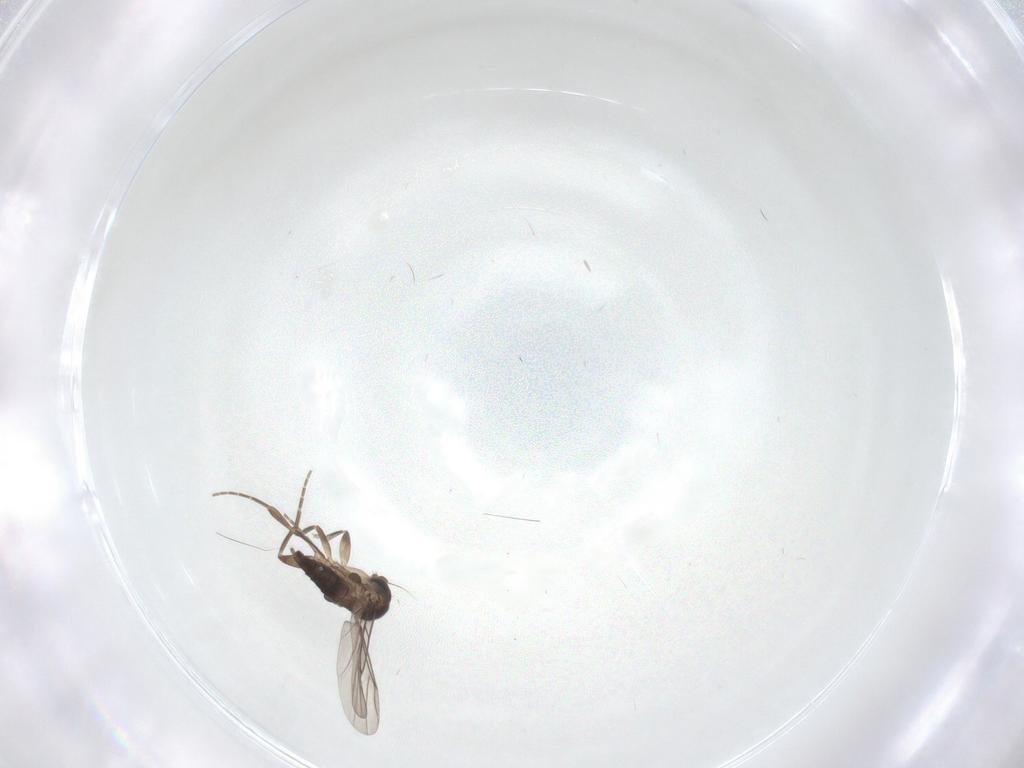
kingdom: Animalia
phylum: Arthropoda
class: Insecta
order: Diptera
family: Phoridae
